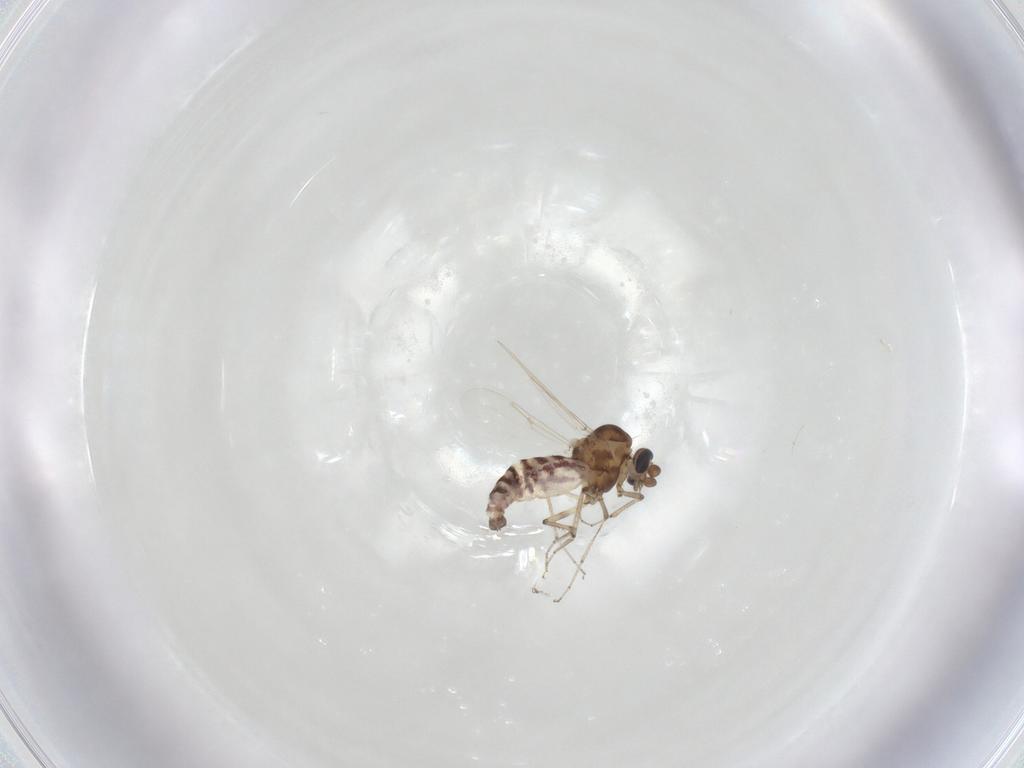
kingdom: Animalia
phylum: Arthropoda
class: Insecta
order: Diptera
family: Ceratopogonidae
